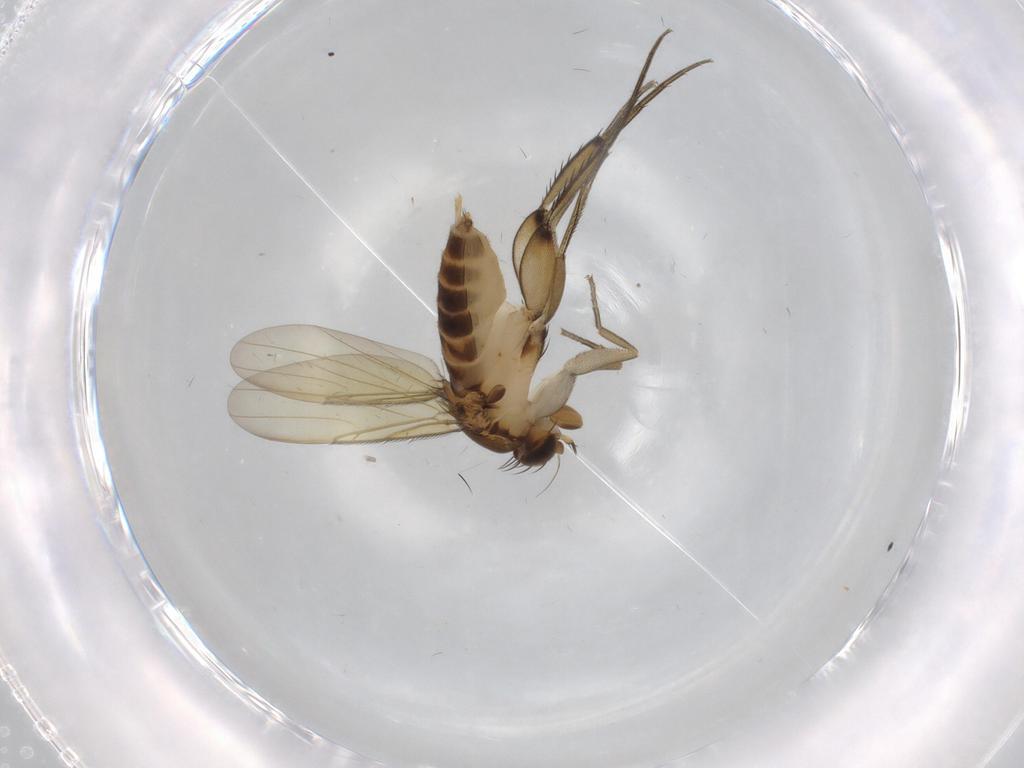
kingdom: Animalia
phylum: Arthropoda
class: Insecta
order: Diptera
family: Phoridae
